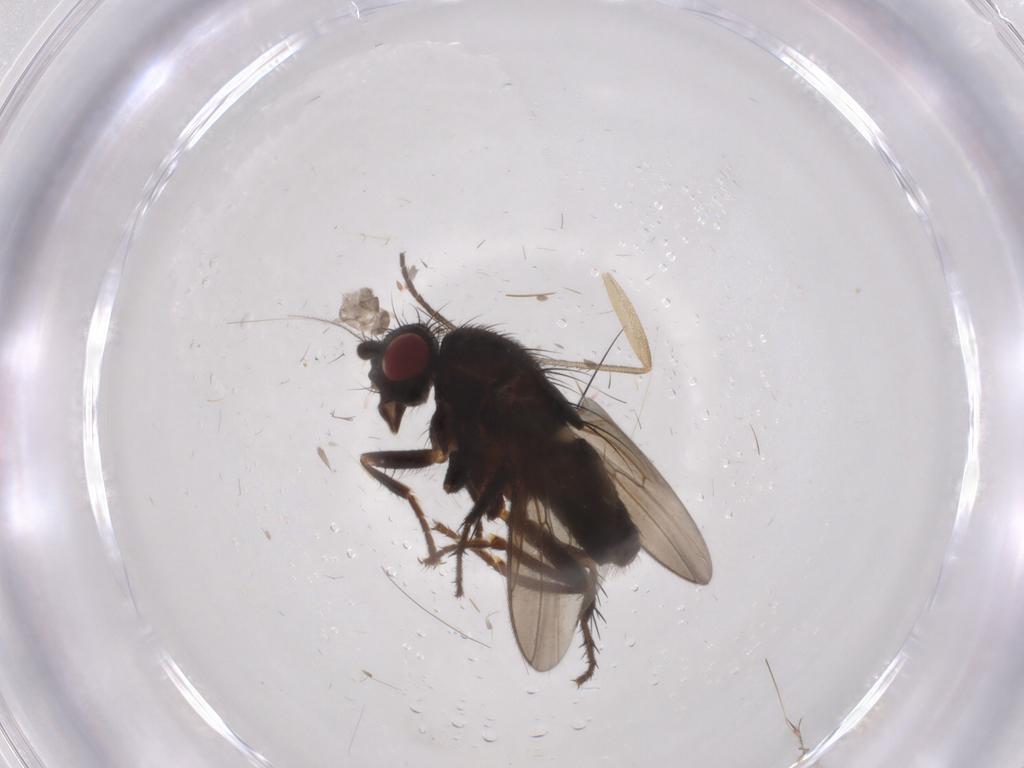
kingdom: Animalia
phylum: Arthropoda
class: Insecta
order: Diptera
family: Sphaeroceridae
